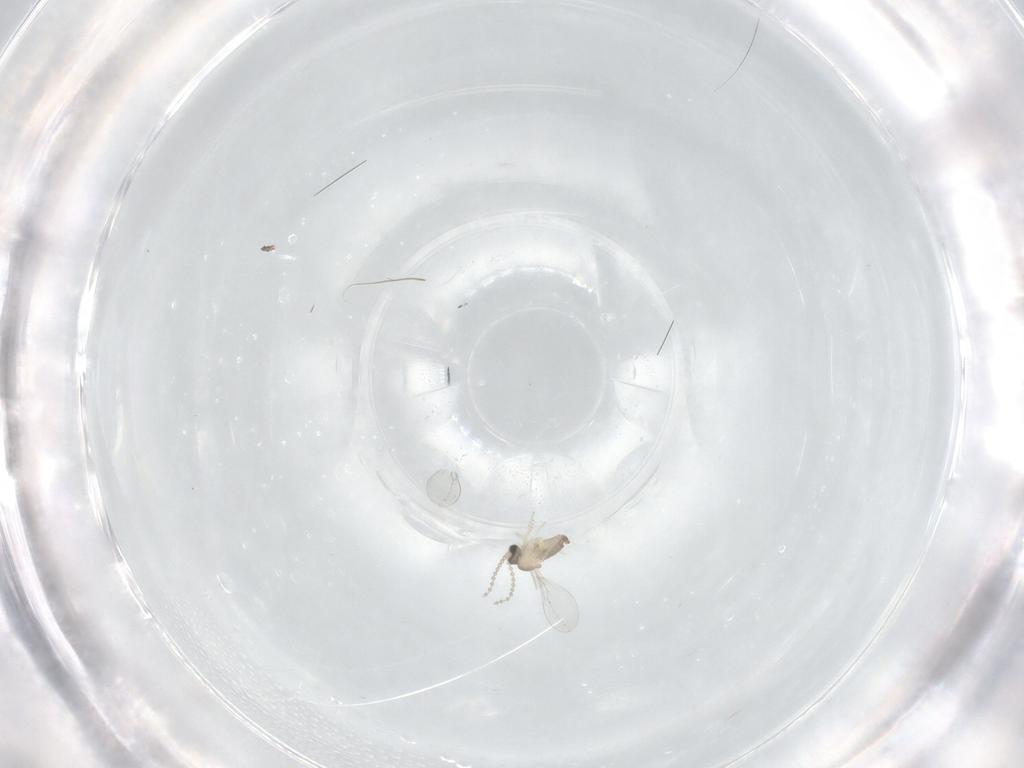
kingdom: Animalia
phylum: Arthropoda
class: Insecta
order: Diptera
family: Cecidomyiidae
